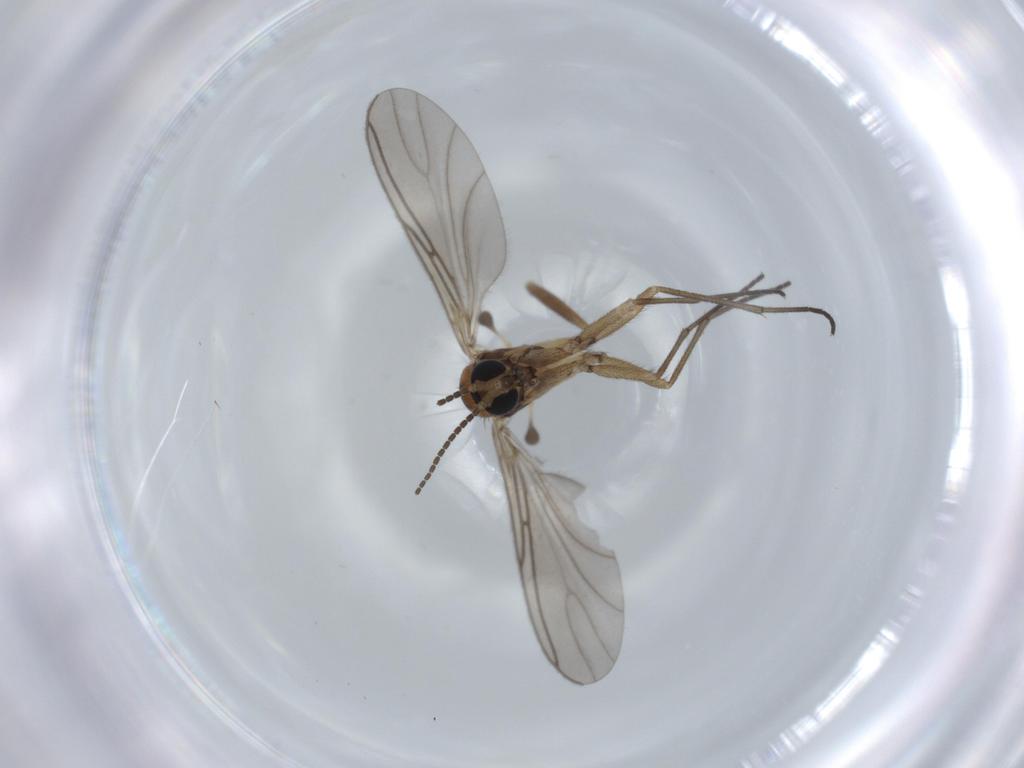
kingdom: Animalia
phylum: Arthropoda
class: Insecta
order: Diptera
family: Sciaridae
